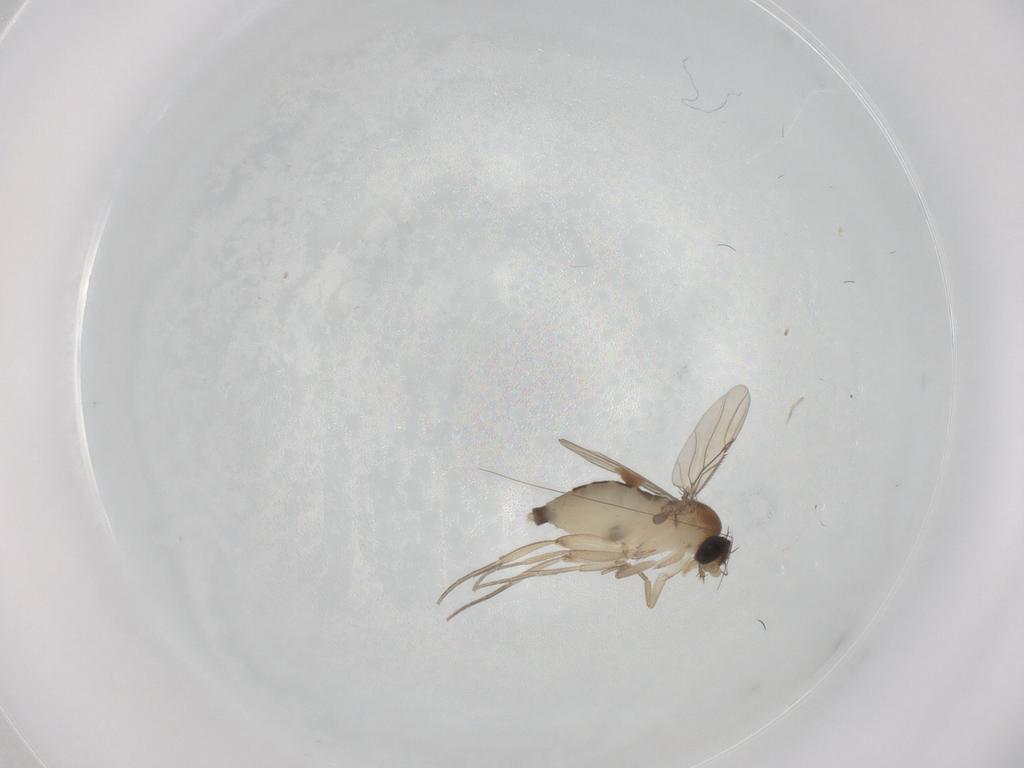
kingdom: Animalia
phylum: Arthropoda
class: Insecta
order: Diptera
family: Phoridae
